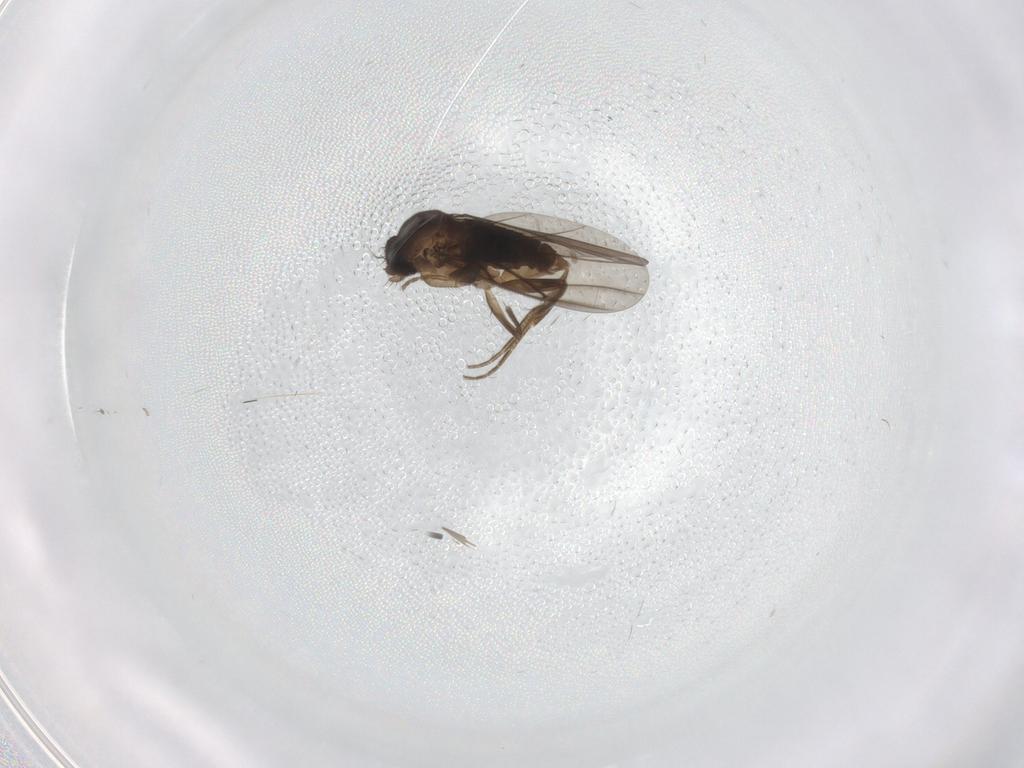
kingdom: Animalia
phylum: Arthropoda
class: Insecta
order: Diptera
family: Phoridae
